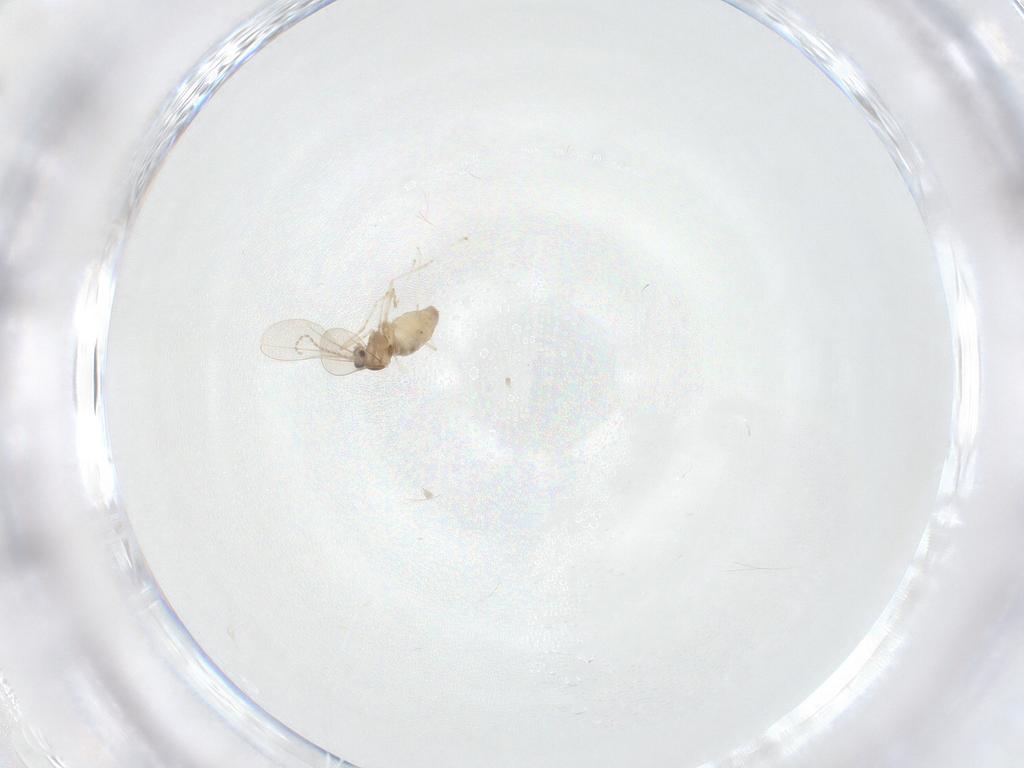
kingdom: Animalia
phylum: Arthropoda
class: Insecta
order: Diptera
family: Cecidomyiidae
